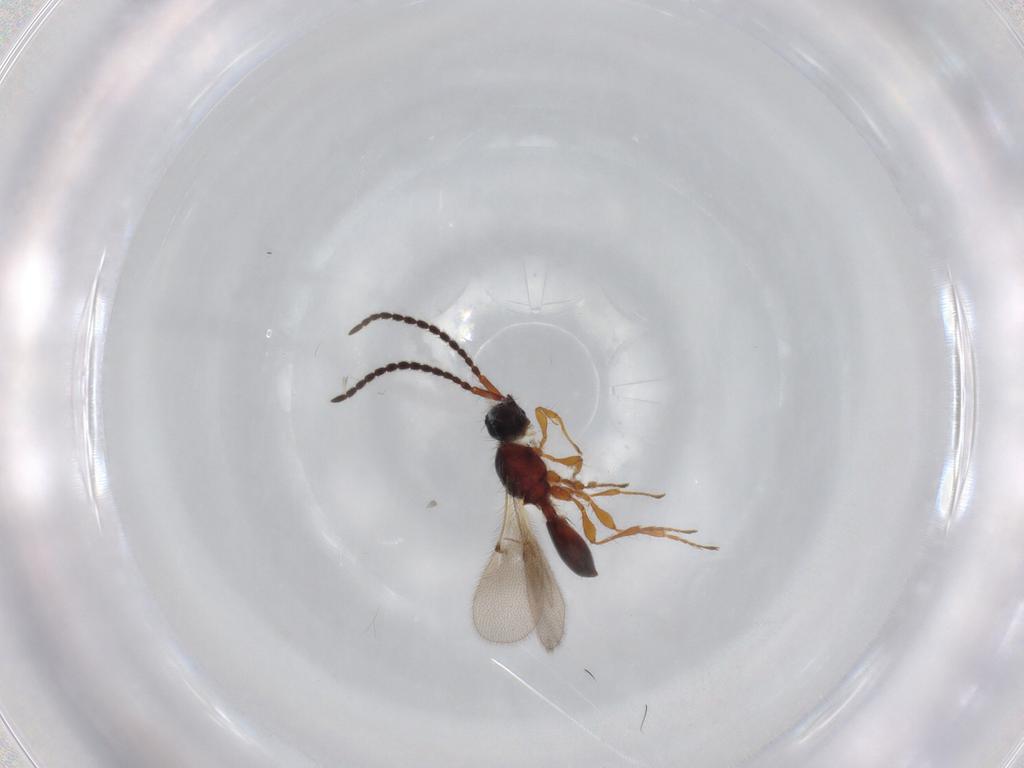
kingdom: Animalia
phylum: Arthropoda
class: Insecta
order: Hymenoptera
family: Diapriidae
